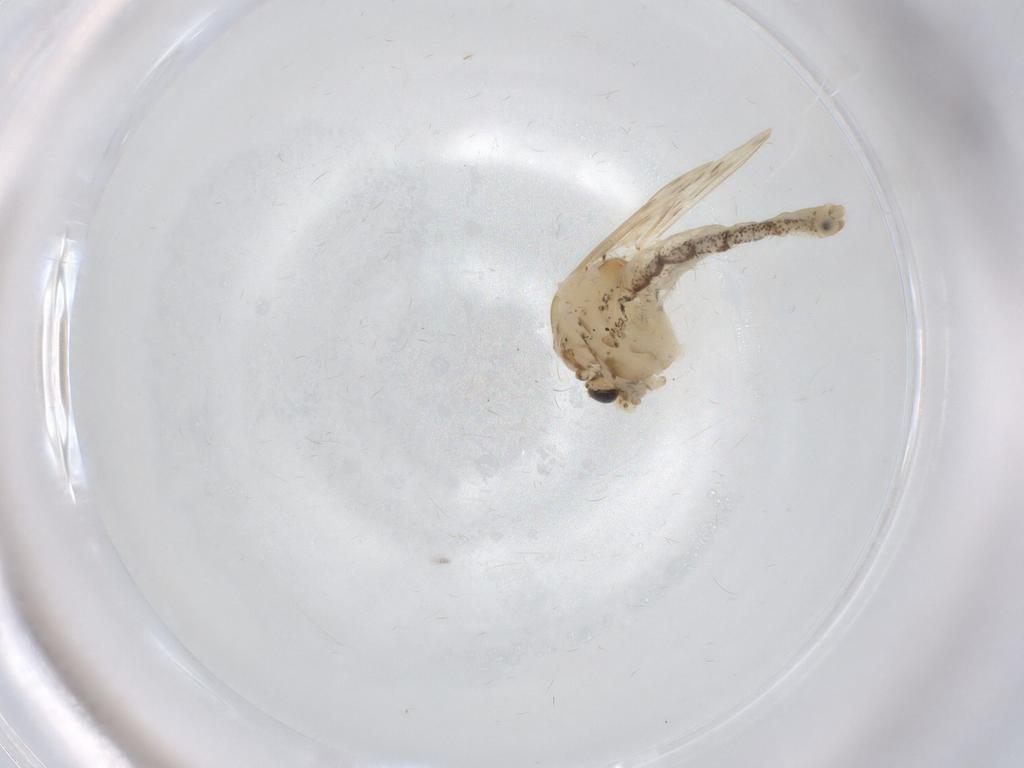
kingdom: Animalia
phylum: Arthropoda
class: Insecta
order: Diptera
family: Chaoboridae
